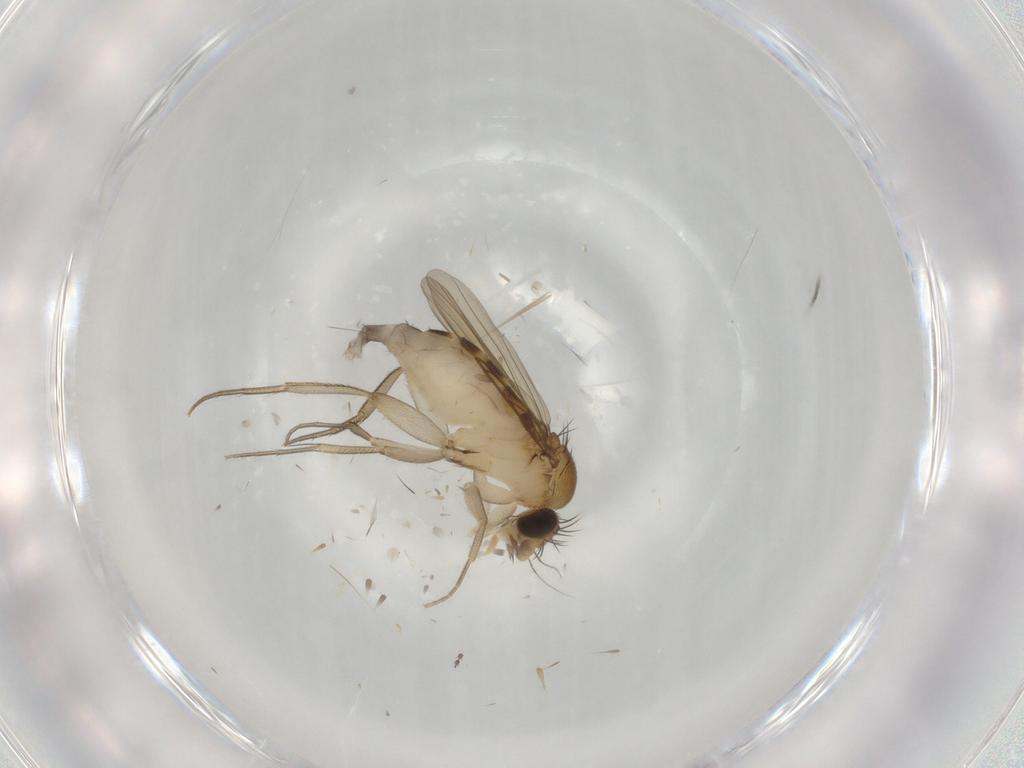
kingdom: Animalia
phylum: Arthropoda
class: Insecta
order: Diptera
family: Phoridae
